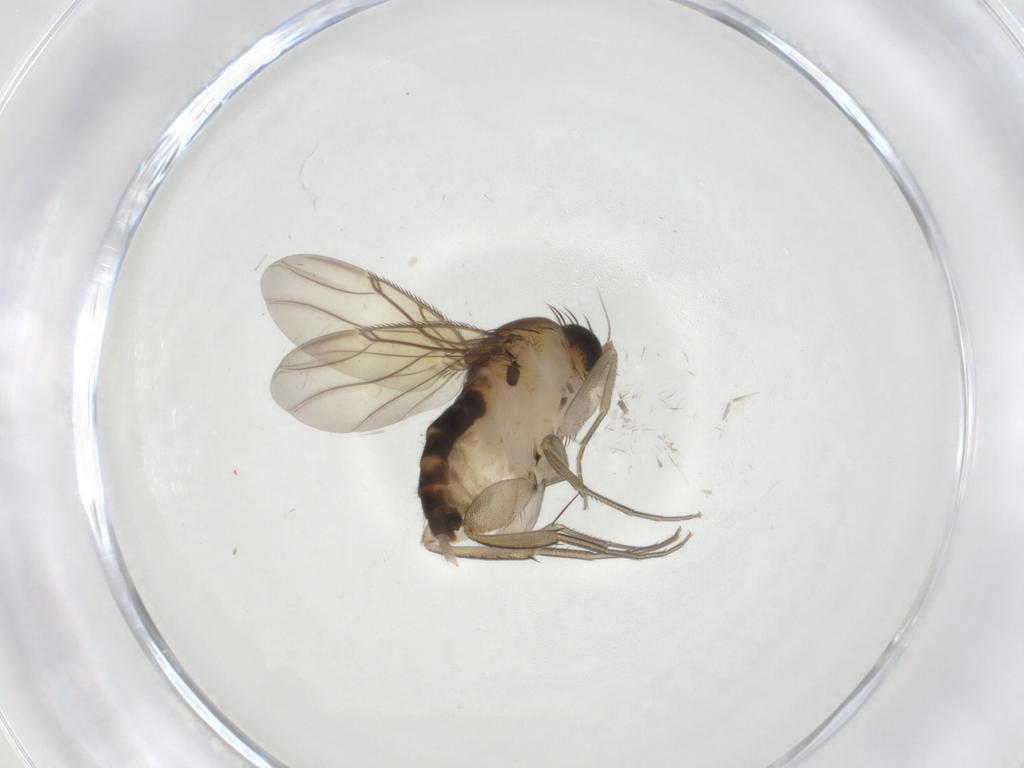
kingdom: Animalia
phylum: Arthropoda
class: Insecta
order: Diptera
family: Phoridae
